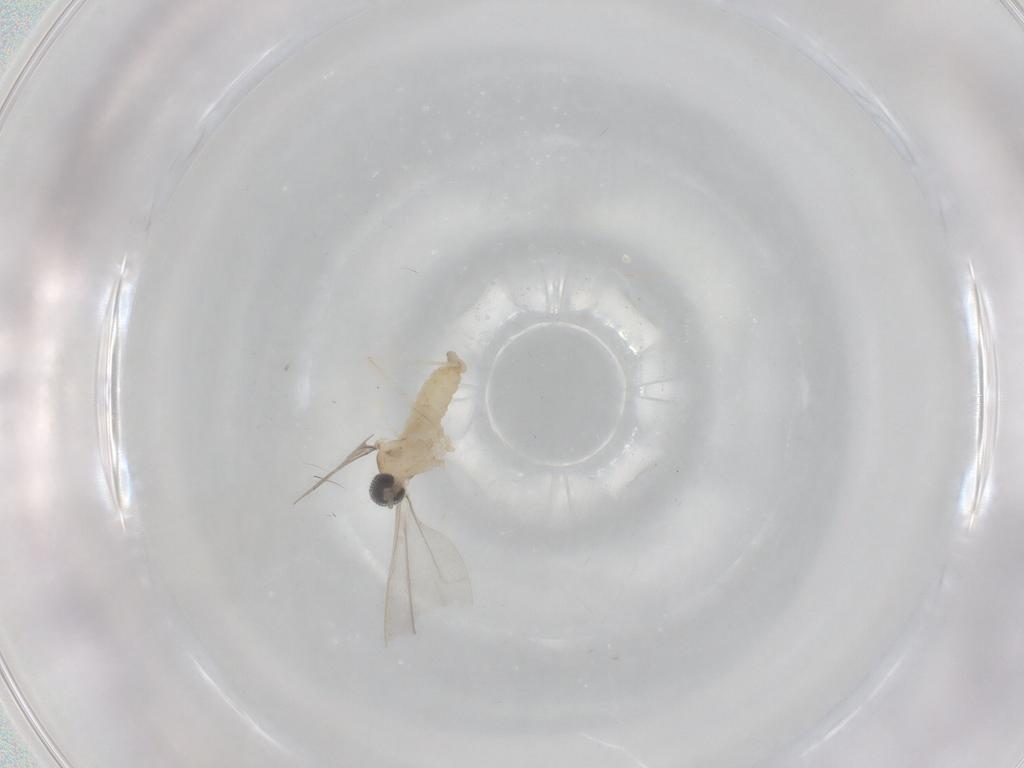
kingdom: Animalia
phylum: Arthropoda
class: Insecta
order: Diptera
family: Cecidomyiidae
